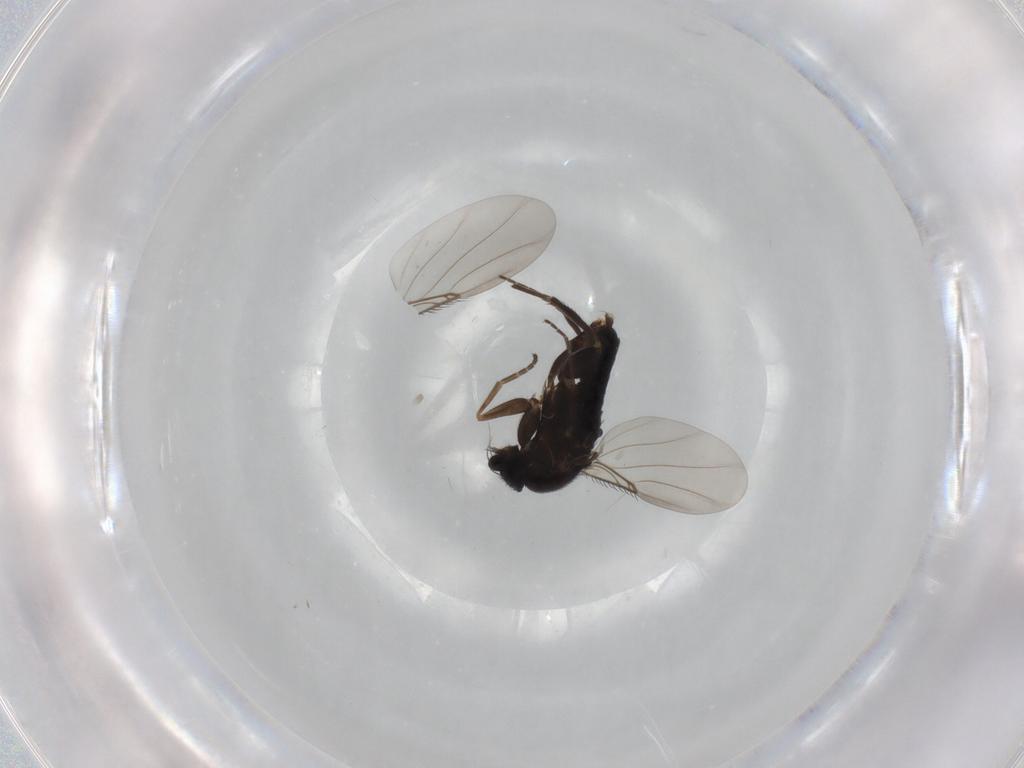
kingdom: Animalia
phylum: Arthropoda
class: Insecta
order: Diptera
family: Phoridae
